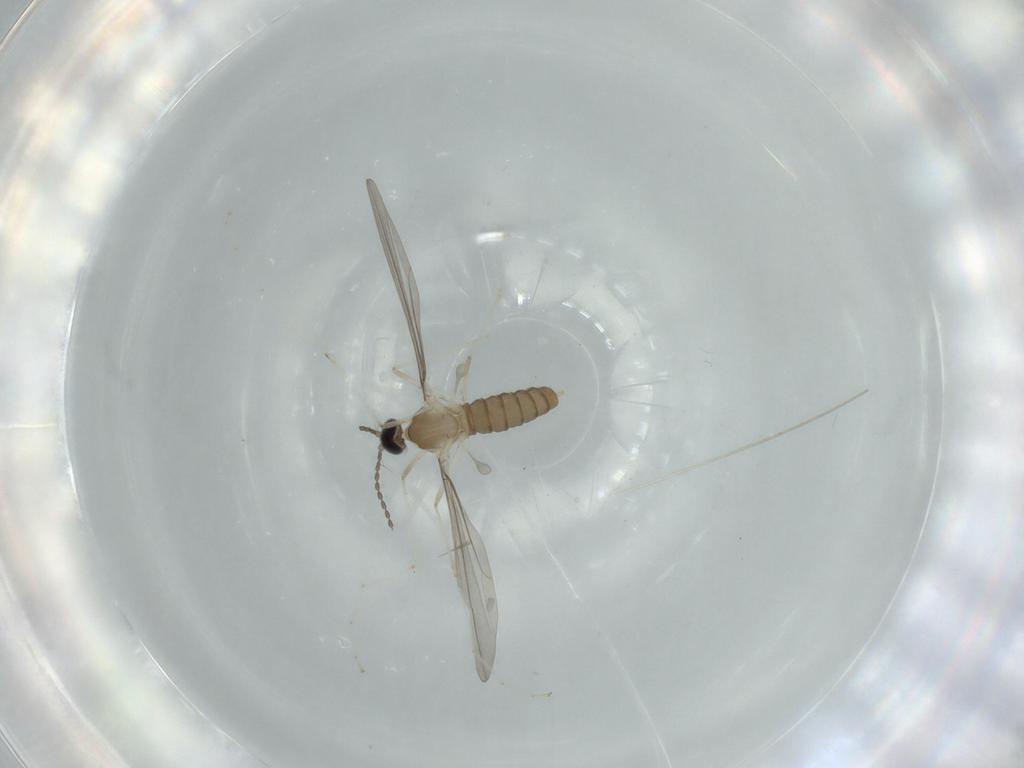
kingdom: Animalia
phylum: Arthropoda
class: Insecta
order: Diptera
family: Cecidomyiidae
